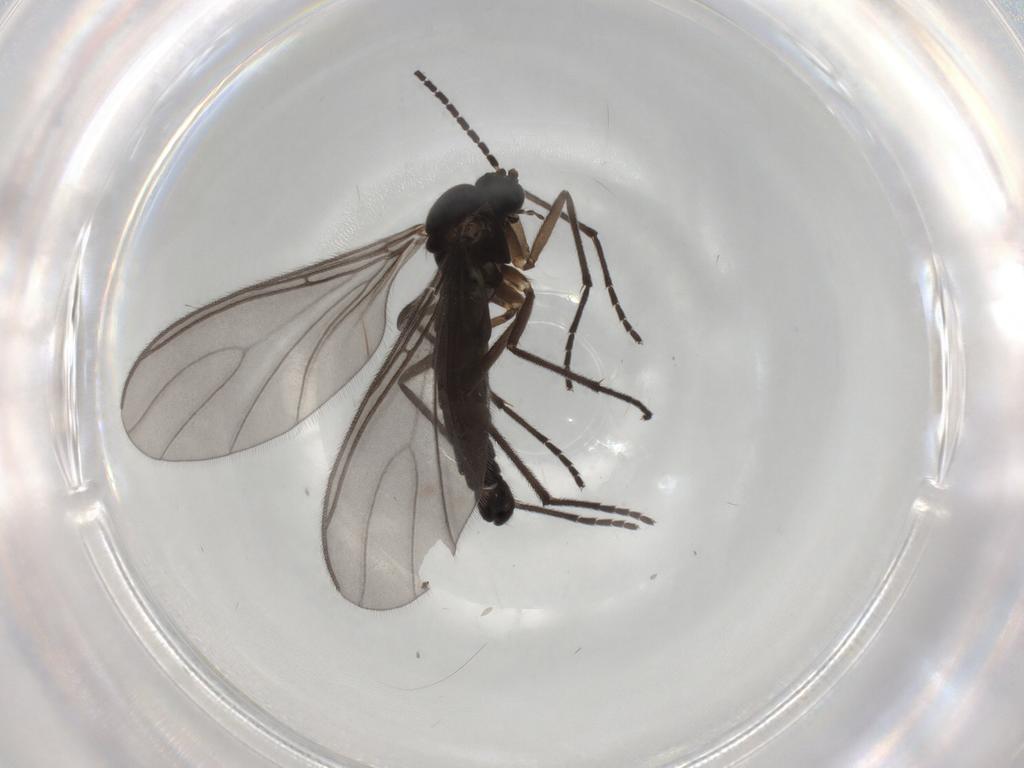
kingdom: Animalia
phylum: Arthropoda
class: Insecta
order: Diptera
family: Sciaridae
